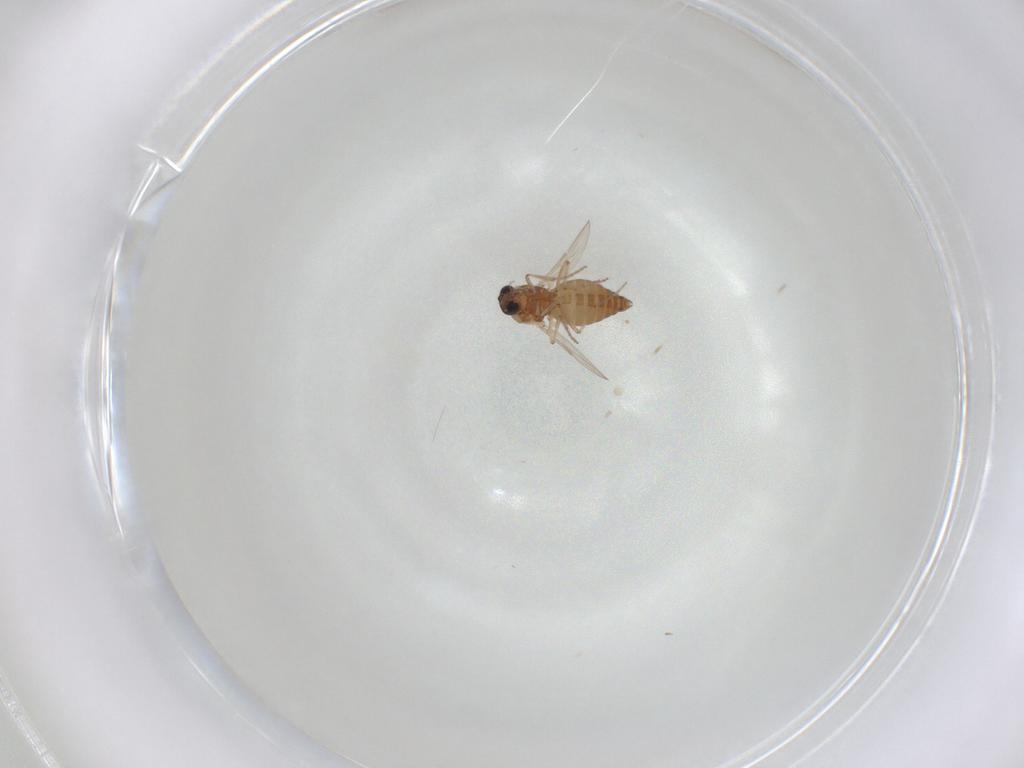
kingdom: Animalia
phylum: Arthropoda
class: Insecta
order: Diptera
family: Ceratopogonidae
